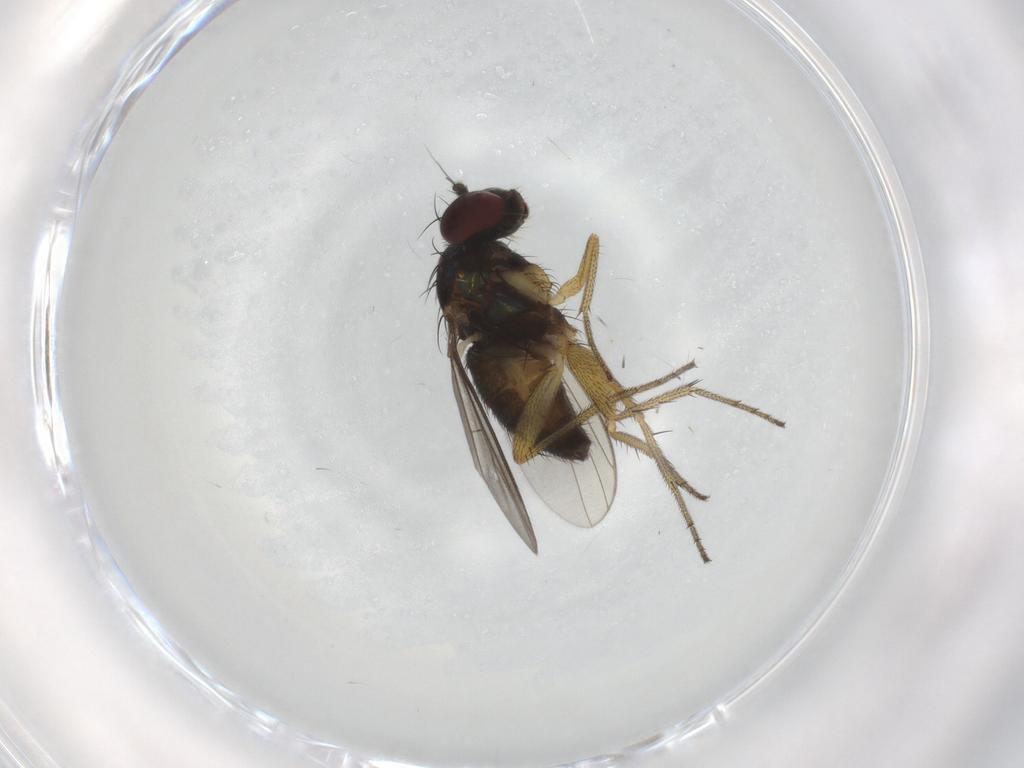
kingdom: Animalia
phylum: Arthropoda
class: Insecta
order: Diptera
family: Dolichopodidae
